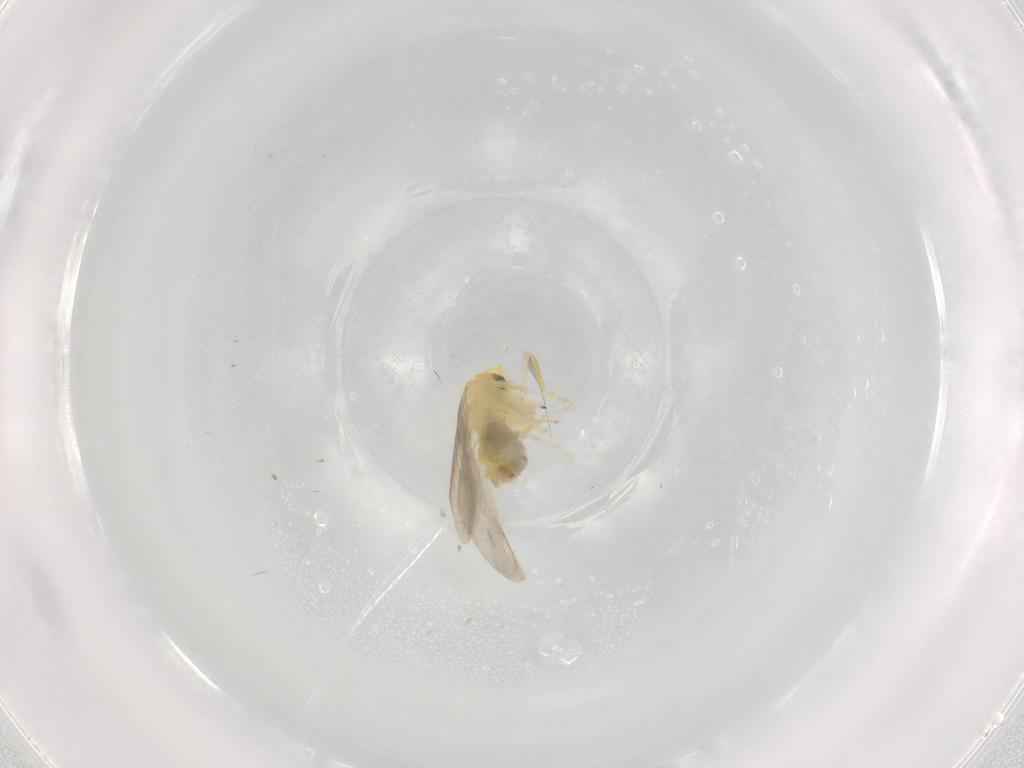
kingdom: Animalia
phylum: Arthropoda
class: Insecta
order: Hemiptera
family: Aleyrodidae
